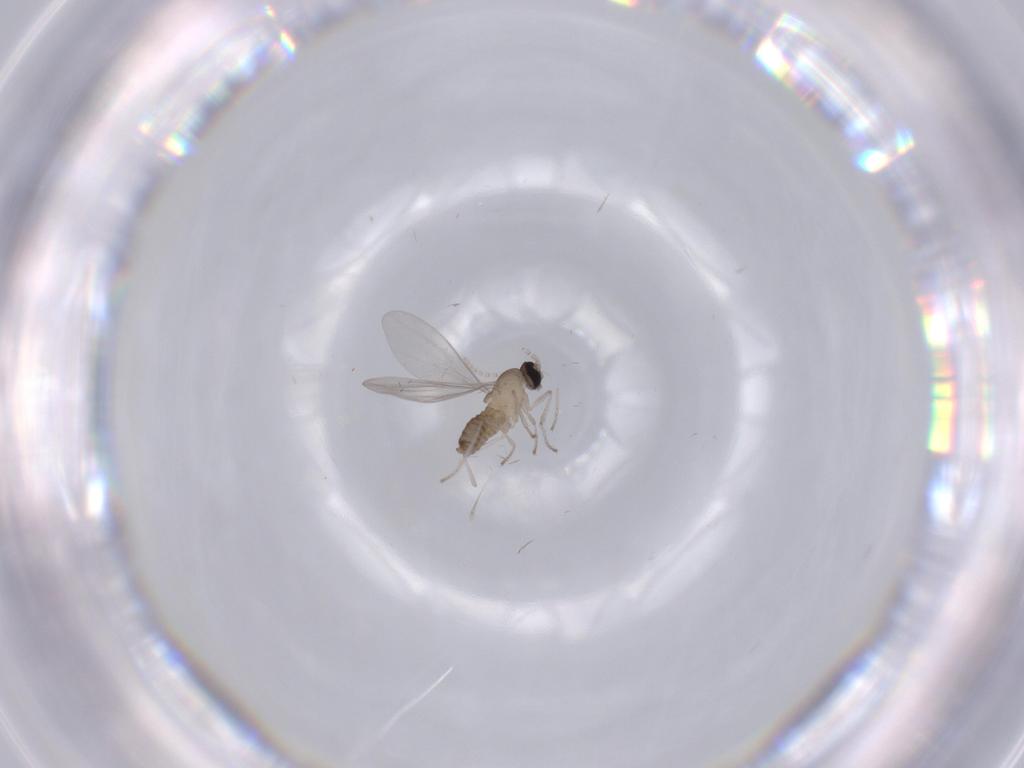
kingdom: Animalia
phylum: Arthropoda
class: Insecta
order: Diptera
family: Cecidomyiidae
